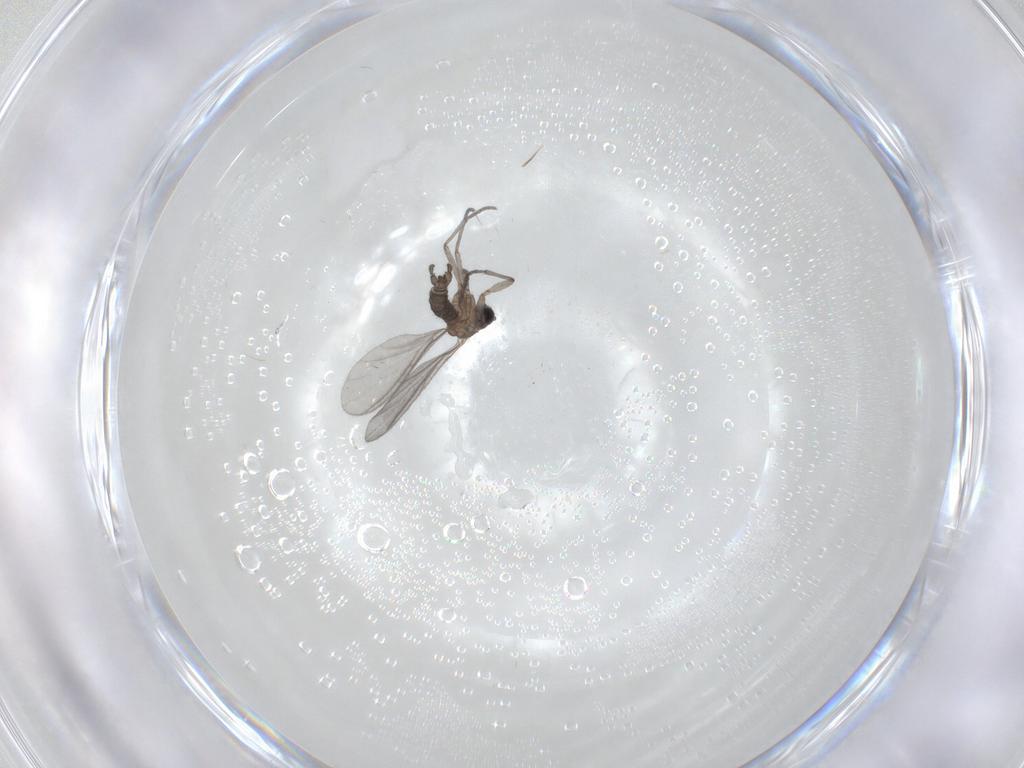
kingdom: Animalia
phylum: Arthropoda
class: Insecta
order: Diptera
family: Sciaridae
